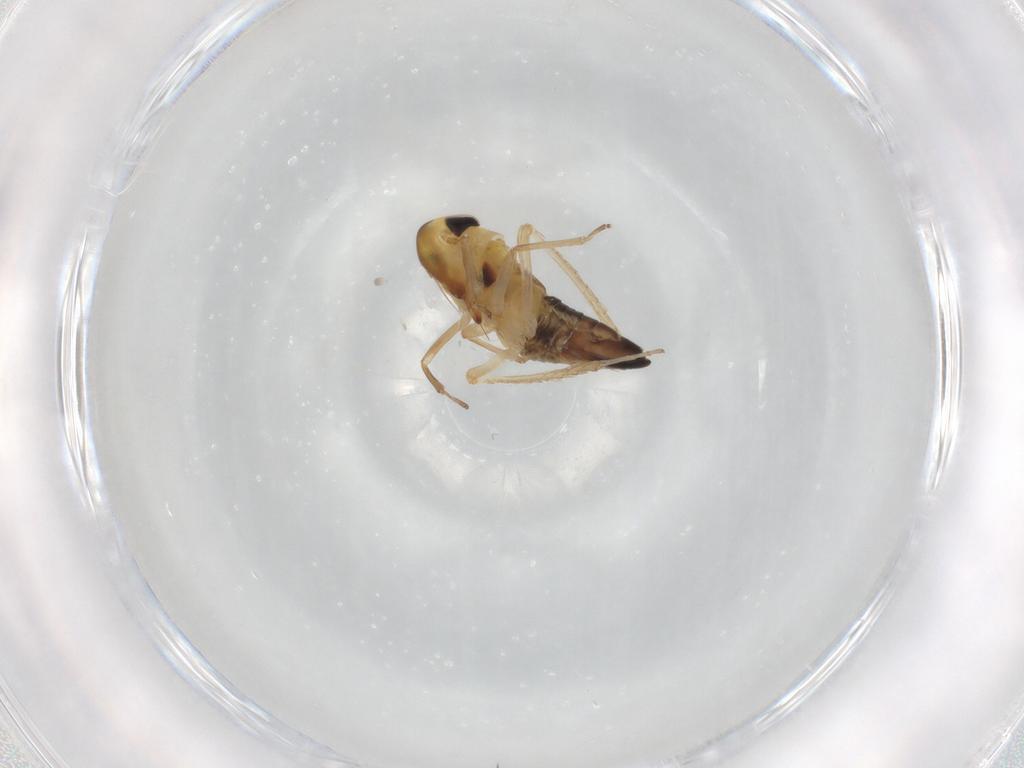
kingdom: Animalia
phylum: Arthropoda
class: Insecta
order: Hemiptera
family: Cicadellidae
